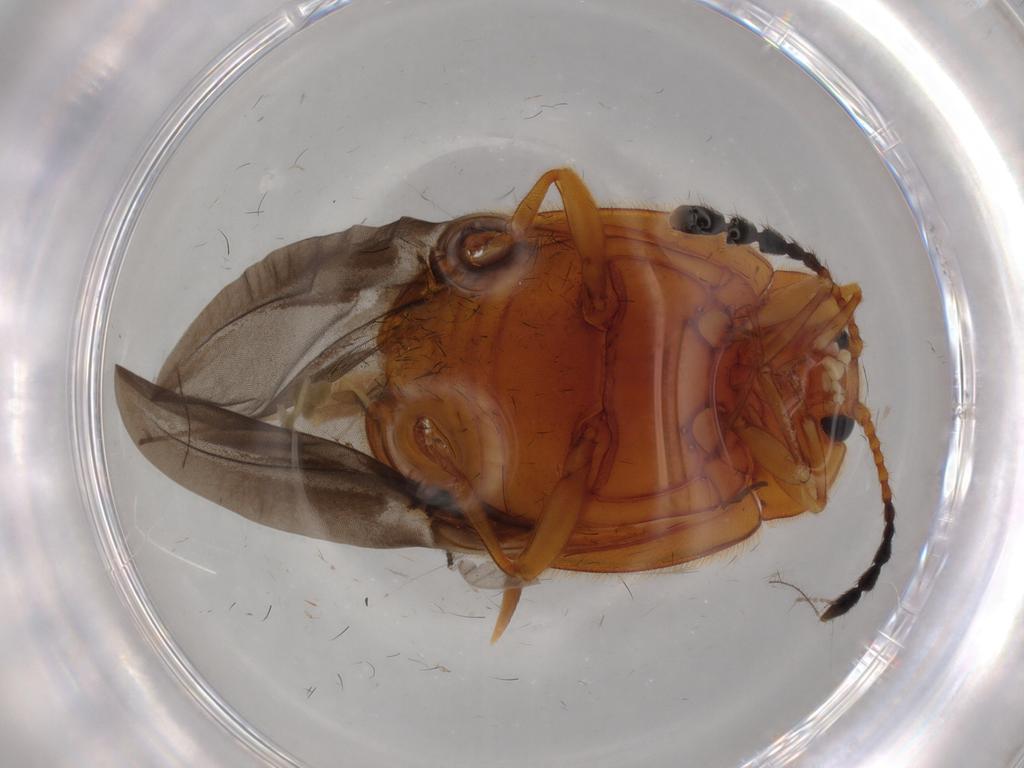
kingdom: Animalia
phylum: Arthropoda
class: Insecta
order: Coleoptera
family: Endomychidae
